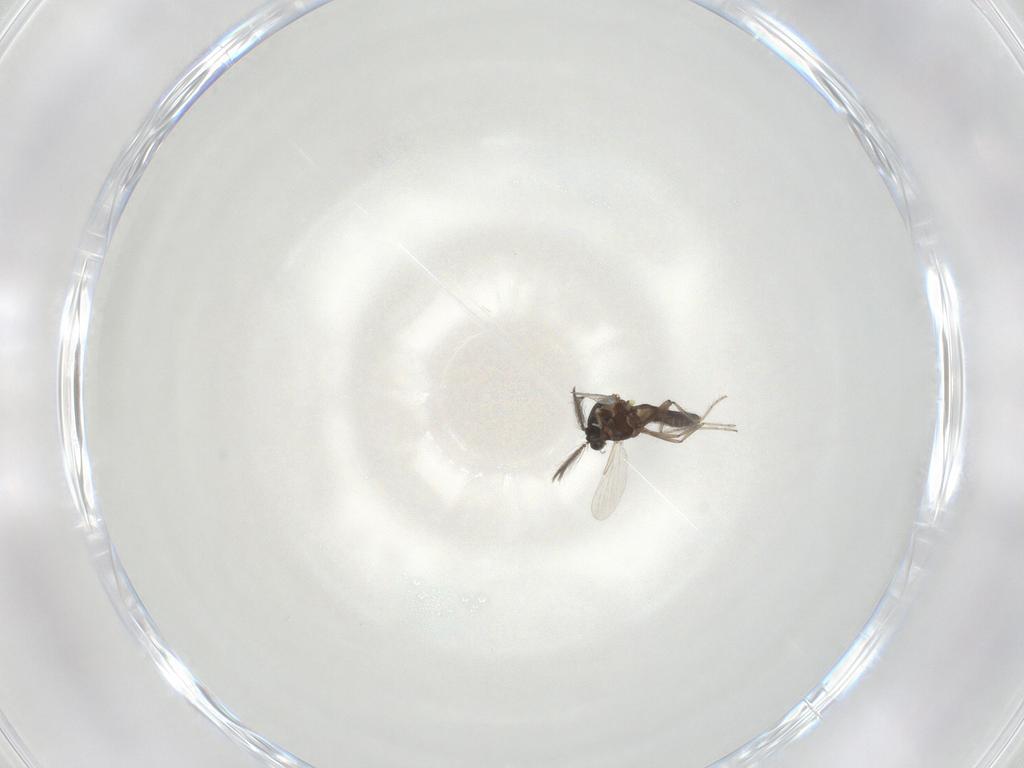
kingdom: Animalia
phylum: Arthropoda
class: Insecta
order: Diptera
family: Ceratopogonidae
